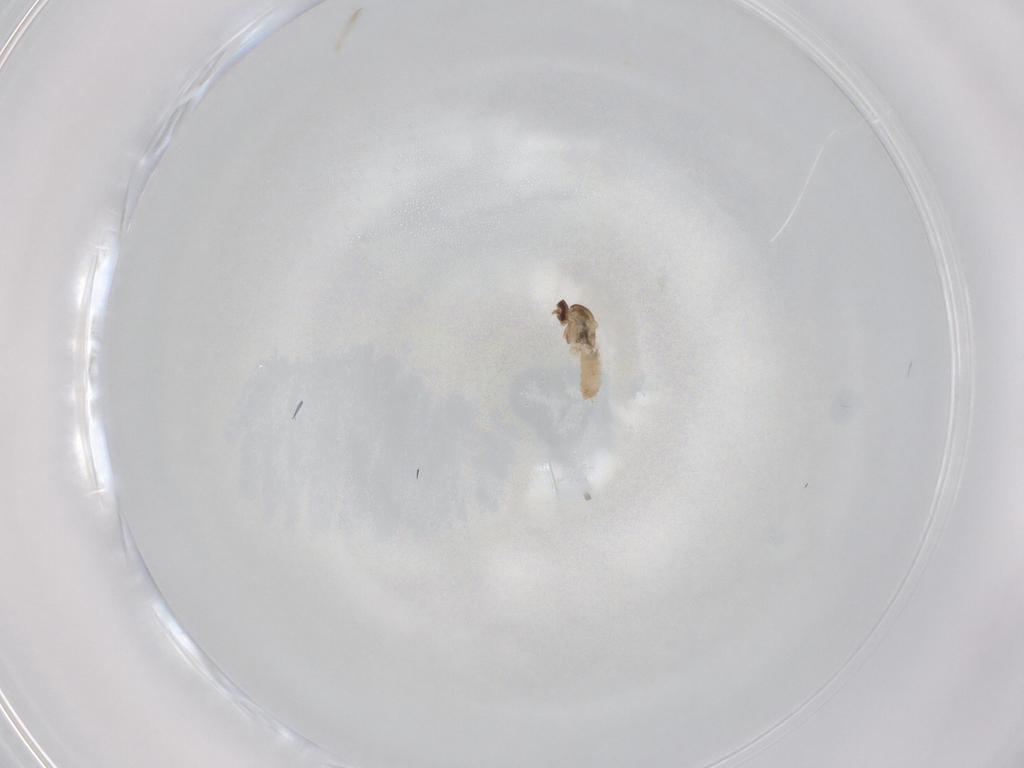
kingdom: Animalia
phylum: Arthropoda
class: Insecta
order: Diptera
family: Cecidomyiidae
